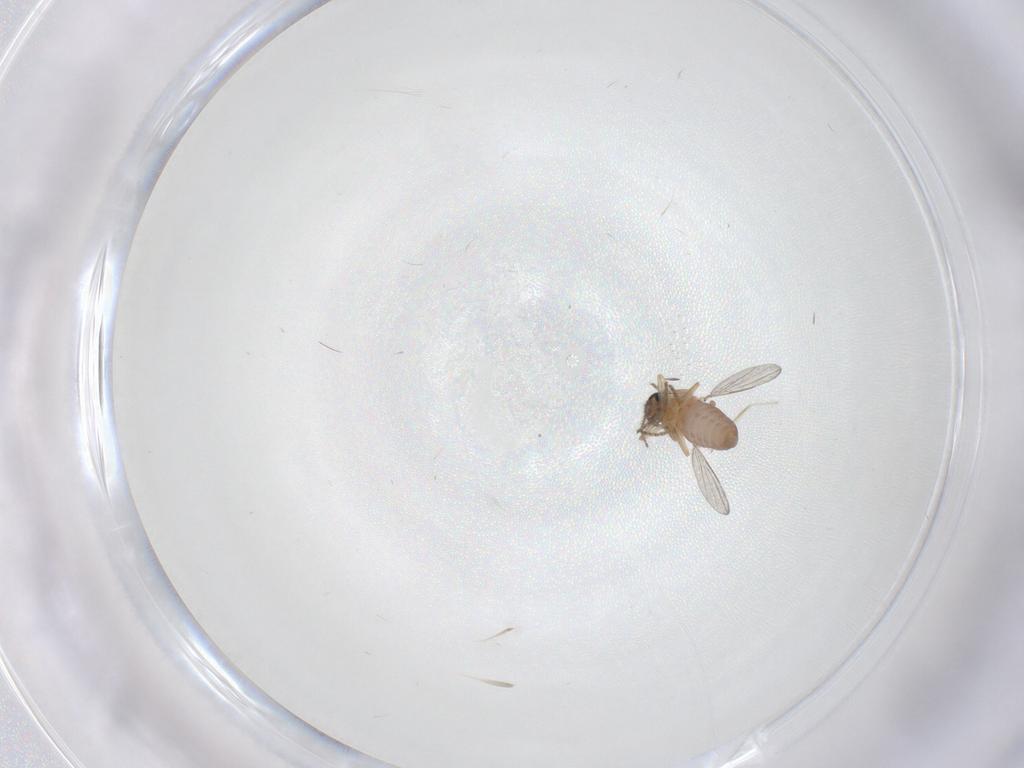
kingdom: Animalia
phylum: Arthropoda
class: Insecta
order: Diptera
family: Ceratopogonidae
